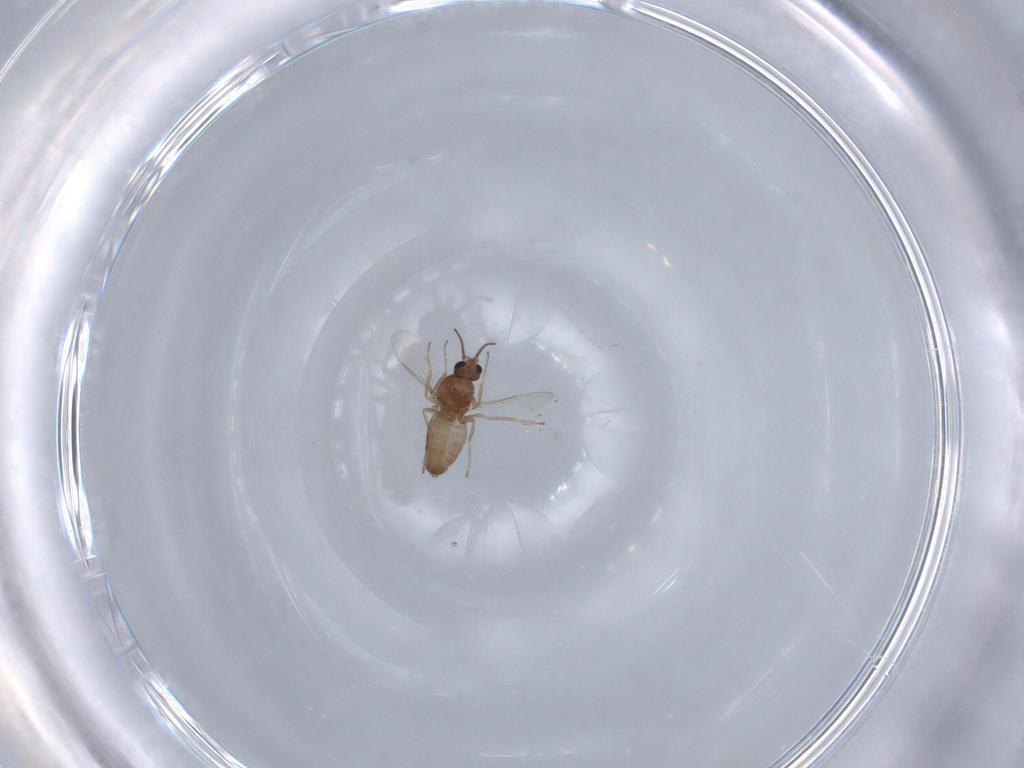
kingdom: Animalia
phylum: Arthropoda
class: Insecta
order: Diptera
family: Ceratopogonidae
